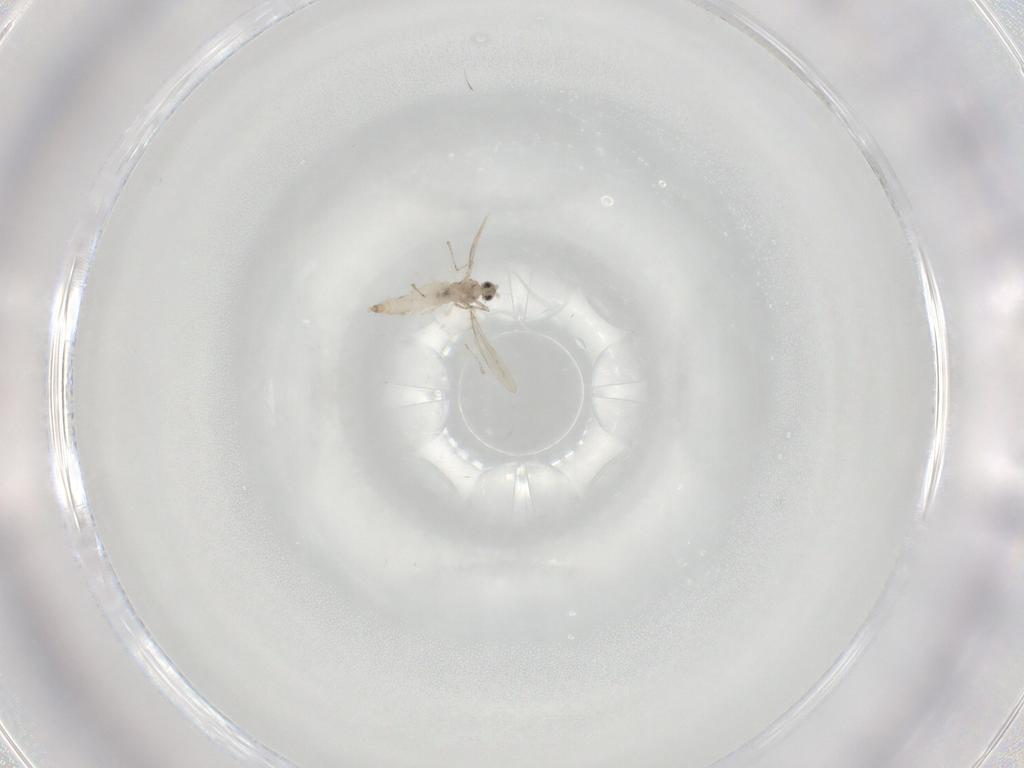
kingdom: Animalia
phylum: Arthropoda
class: Insecta
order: Diptera
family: Cecidomyiidae
